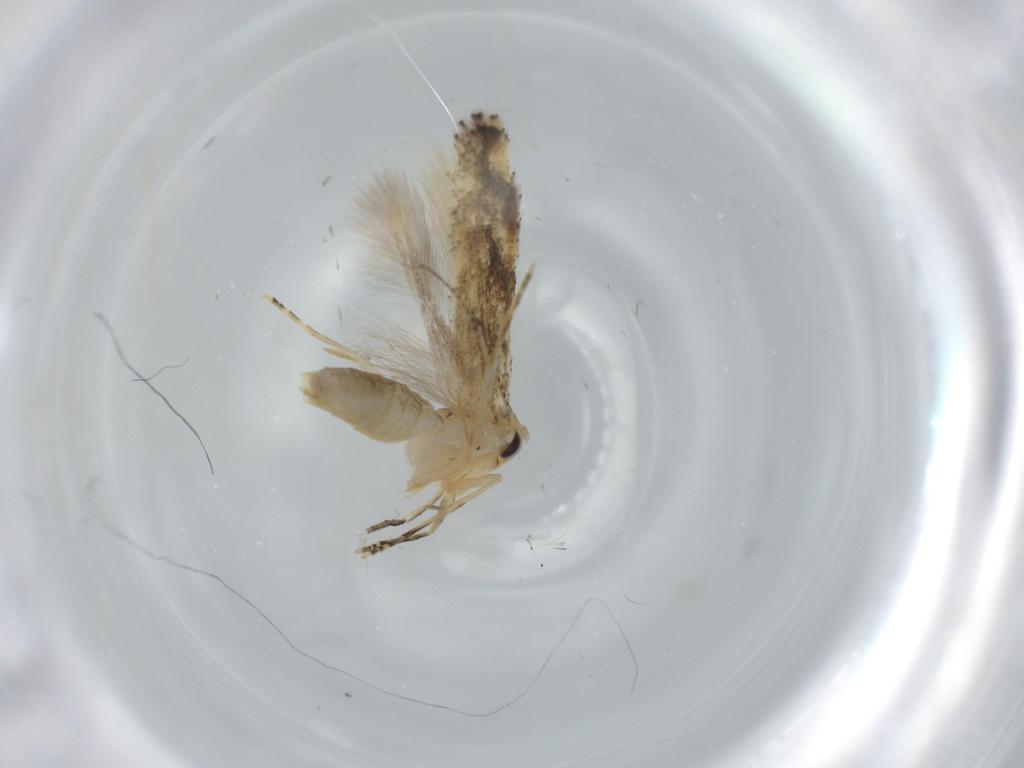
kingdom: Animalia
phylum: Arthropoda
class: Insecta
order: Lepidoptera
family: Bucculatricidae
